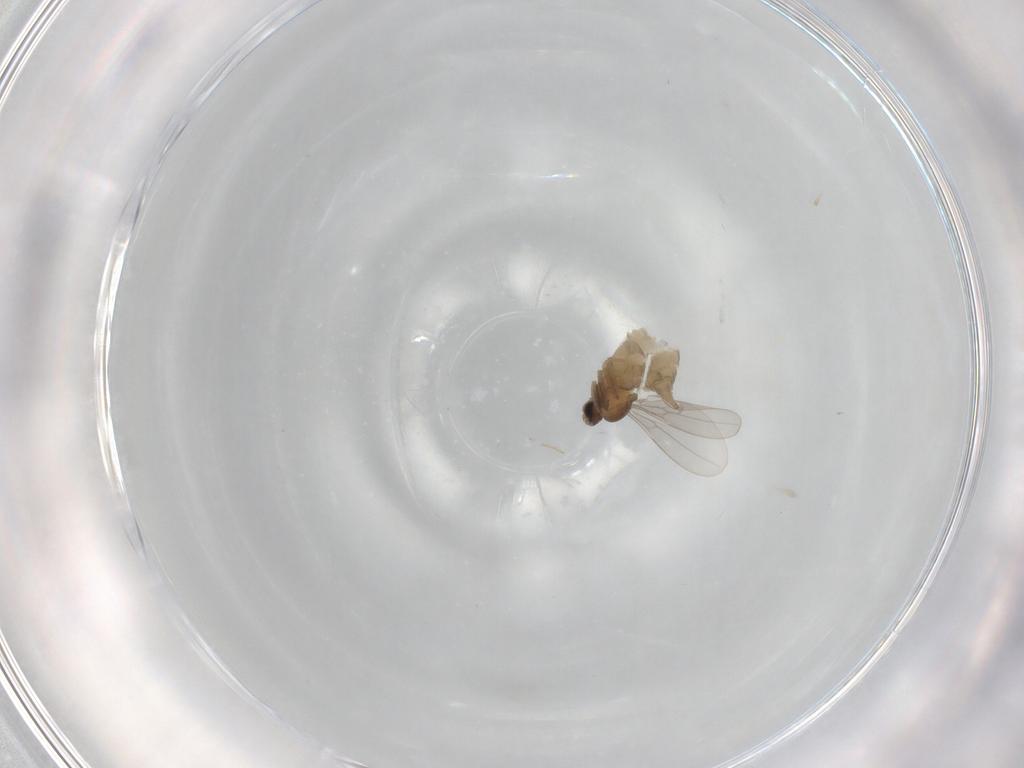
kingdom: Animalia
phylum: Arthropoda
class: Insecta
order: Diptera
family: Cecidomyiidae
